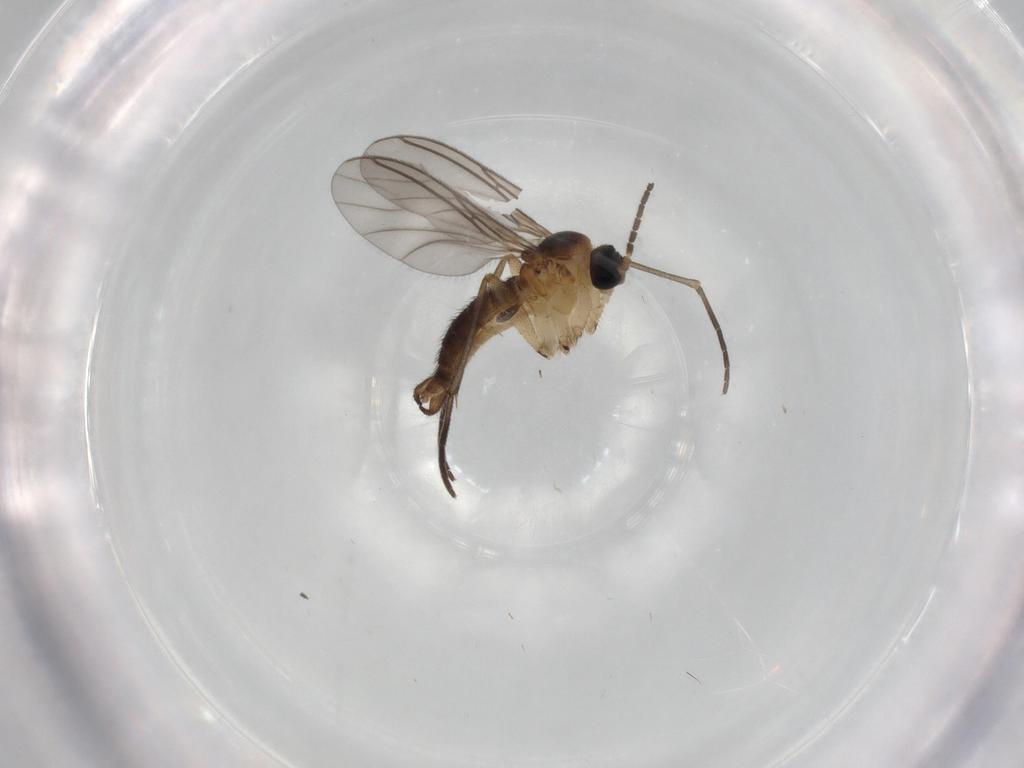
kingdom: Animalia
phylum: Arthropoda
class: Insecta
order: Diptera
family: Sciaridae
